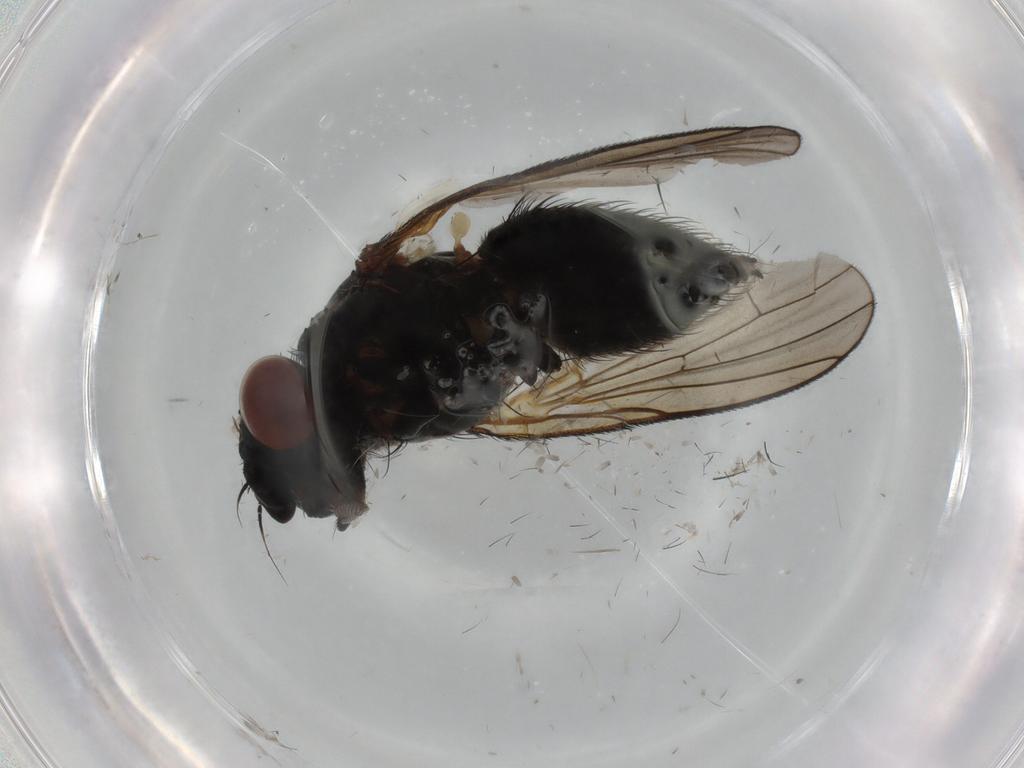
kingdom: Animalia
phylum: Arthropoda
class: Insecta
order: Diptera
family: Anthomyiidae
